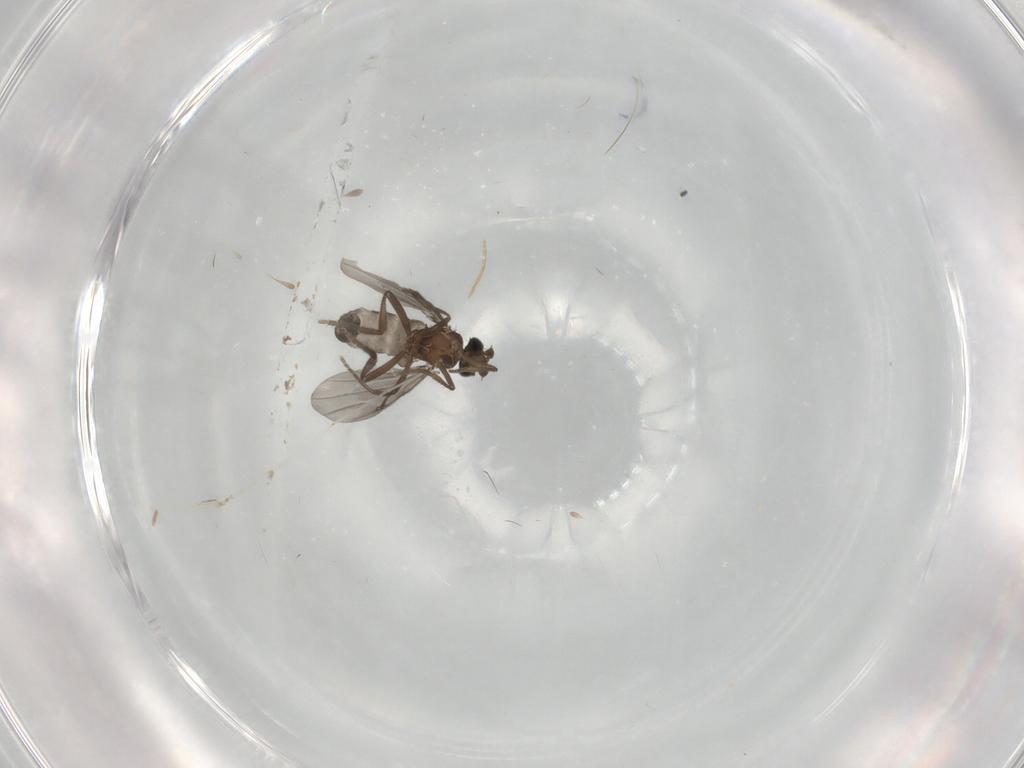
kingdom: Animalia
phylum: Arthropoda
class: Insecta
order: Diptera
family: Phoridae
